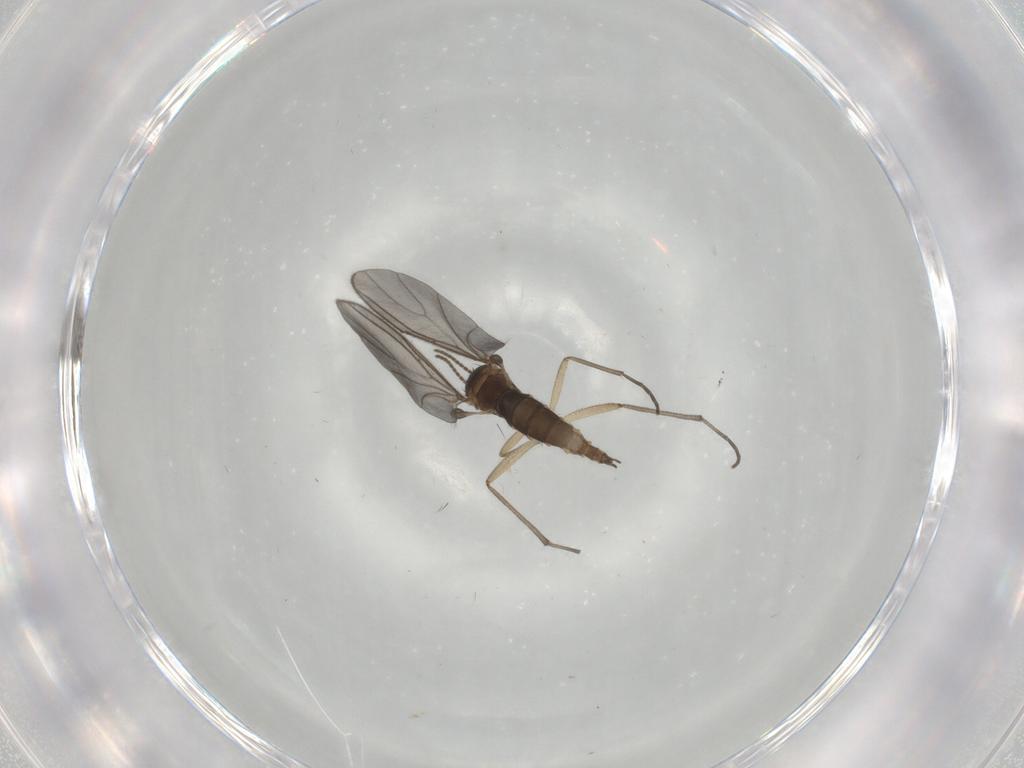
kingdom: Animalia
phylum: Arthropoda
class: Insecta
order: Diptera
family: Sciaridae
